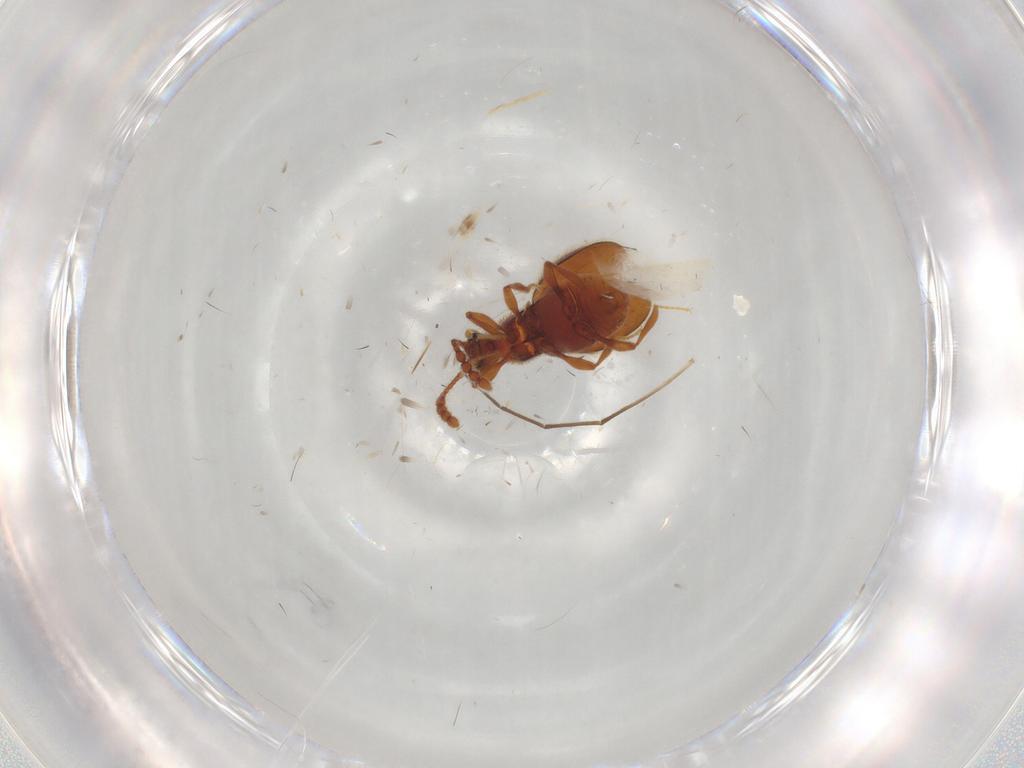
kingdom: Animalia
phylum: Arthropoda
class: Insecta
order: Coleoptera
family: Staphylinidae
